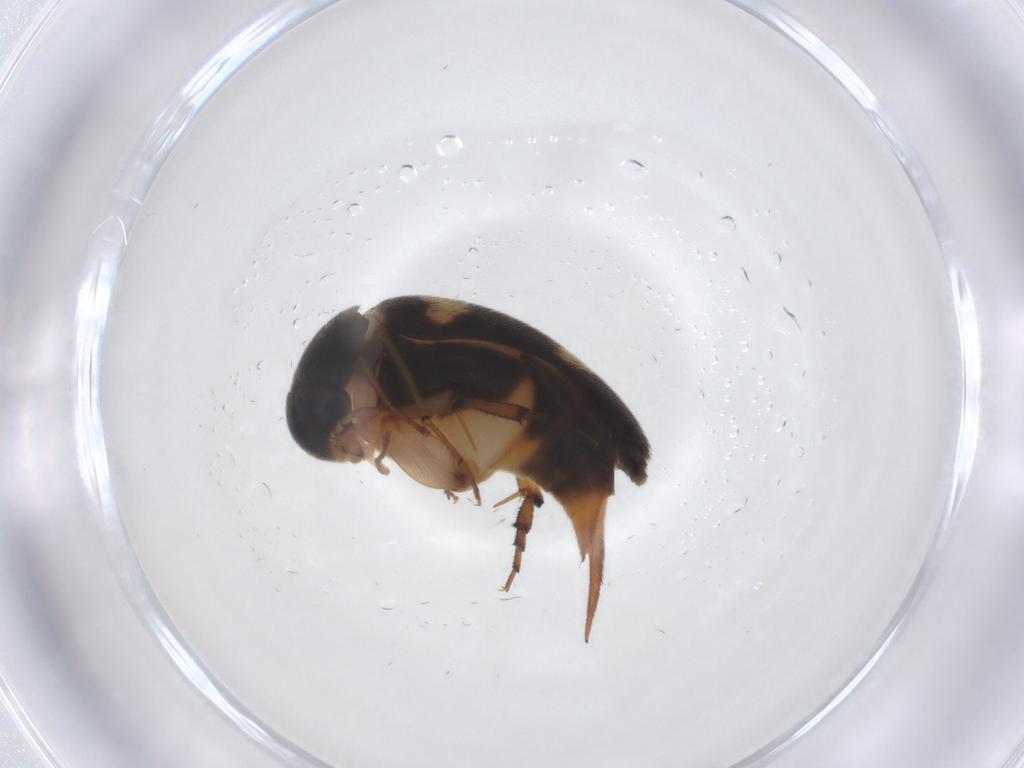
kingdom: Animalia
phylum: Arthropoda
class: Insecta
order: Coleoptera
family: Mordellidae
